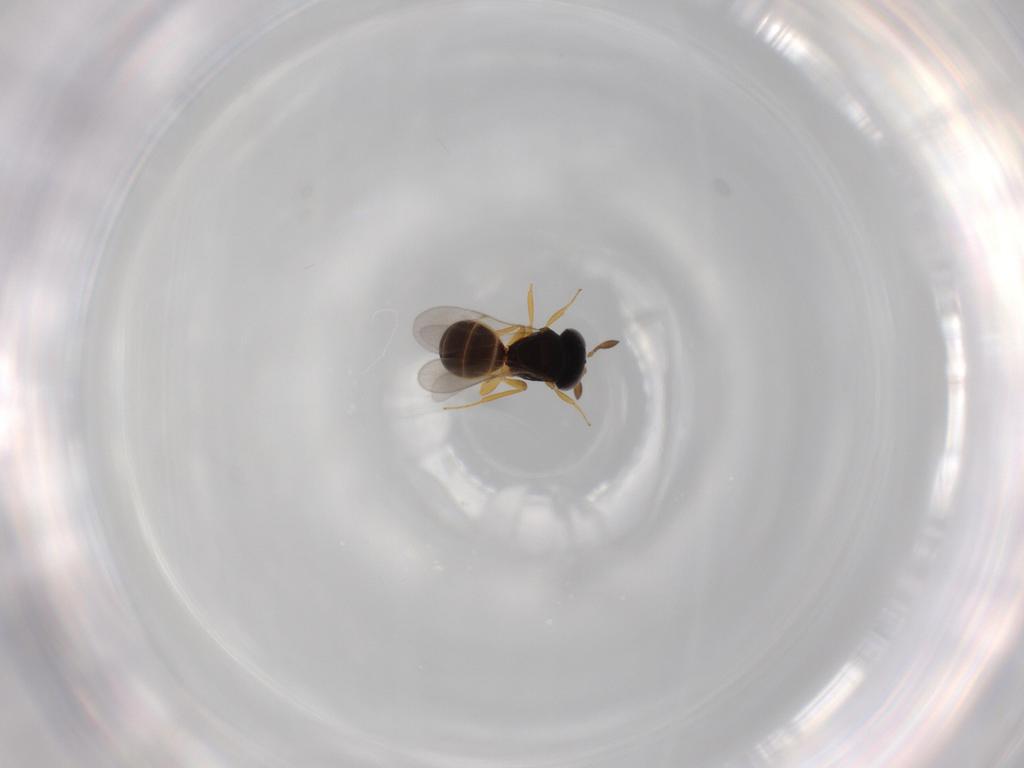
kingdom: Animalia
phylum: Arthropoda
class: Insecta
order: Hymenoptera
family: Scelionidae
